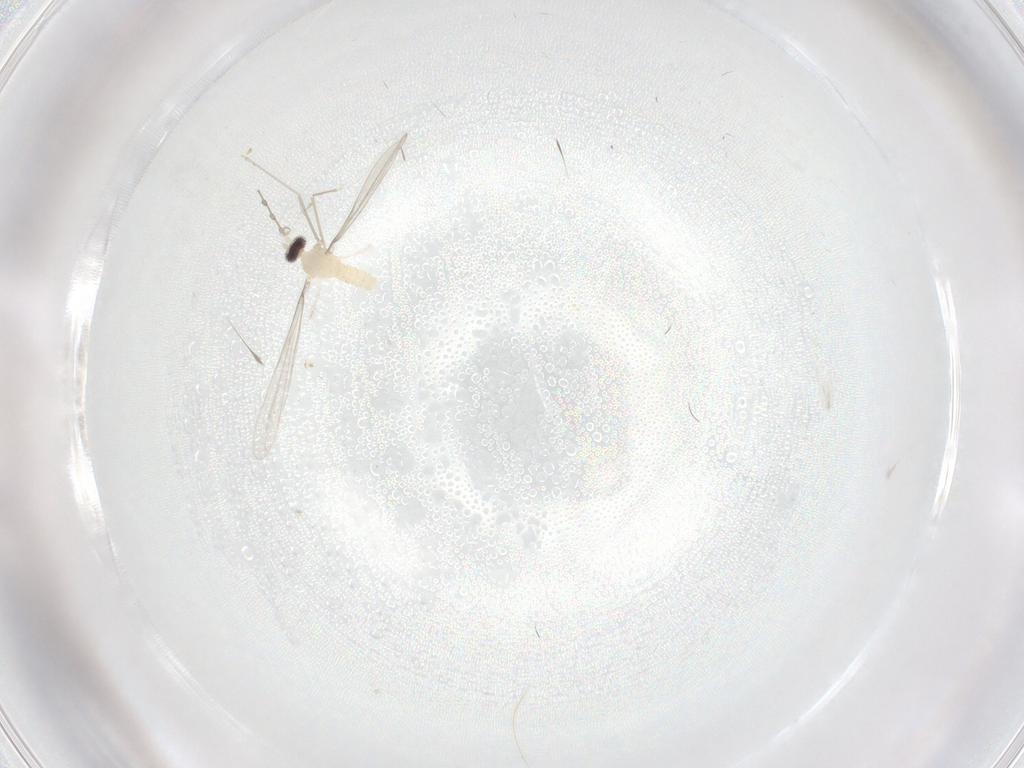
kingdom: Animalia
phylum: Arthropoda
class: Insecta
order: Diptera
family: Cecidomyiidae
